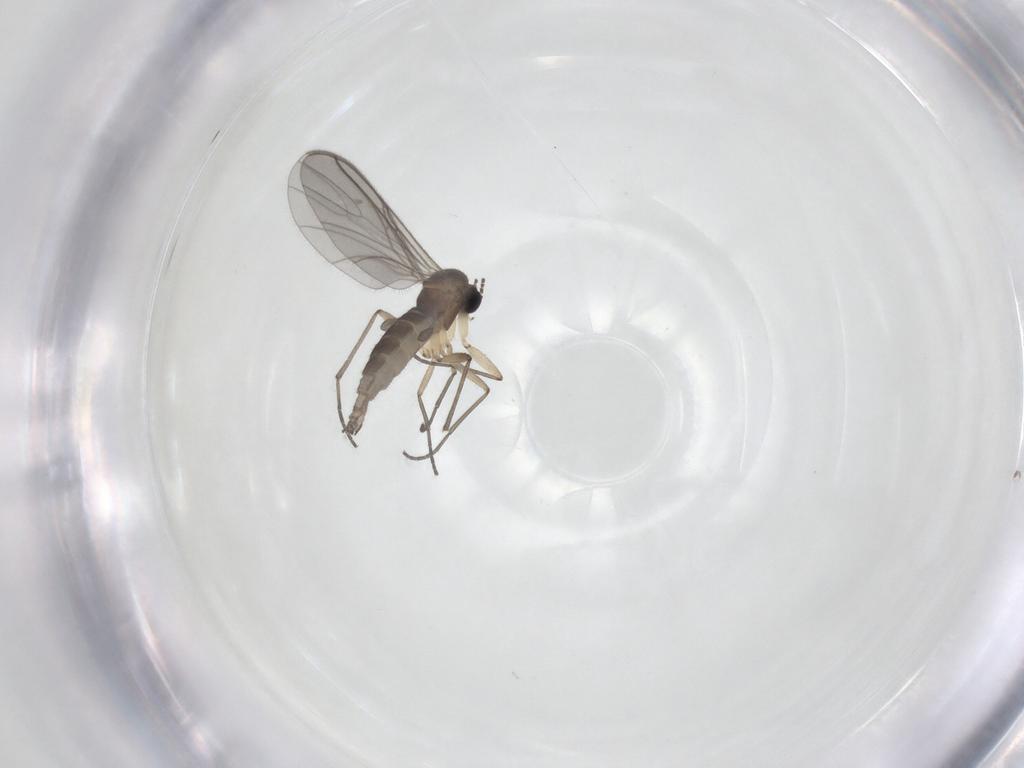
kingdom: Animalia
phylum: Arthropoda
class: Insecta
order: Diptera
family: Sciaridae
